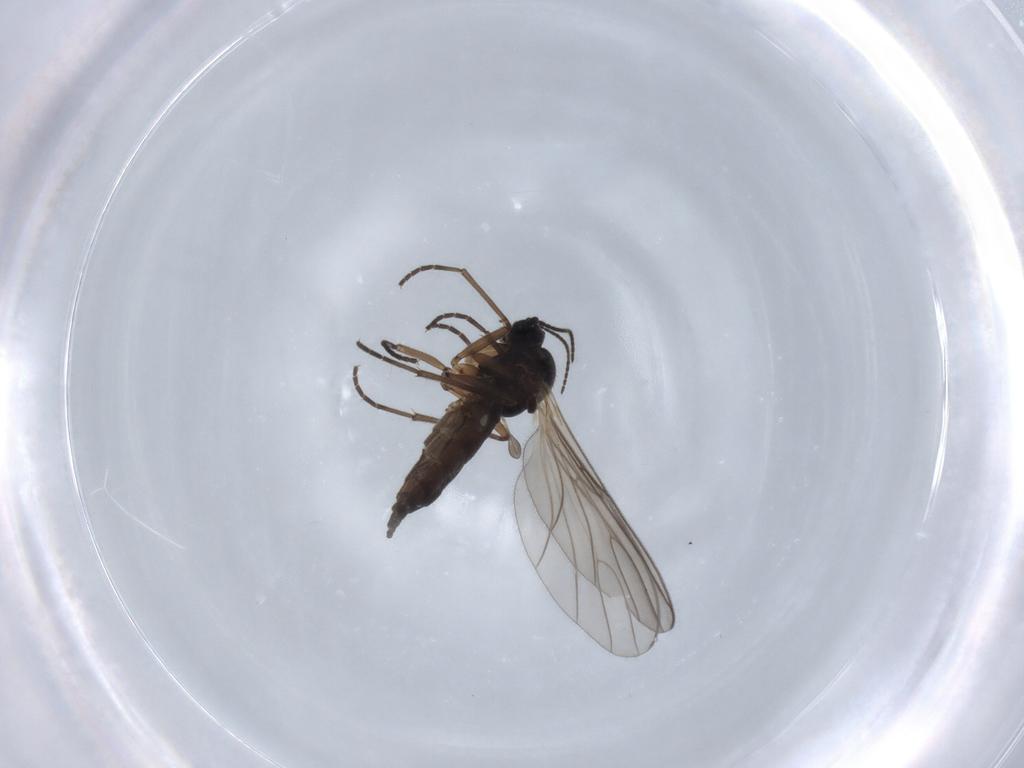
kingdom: Animalia
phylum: Arthropoda
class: Insecta
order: Diptera
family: Sciaridae
